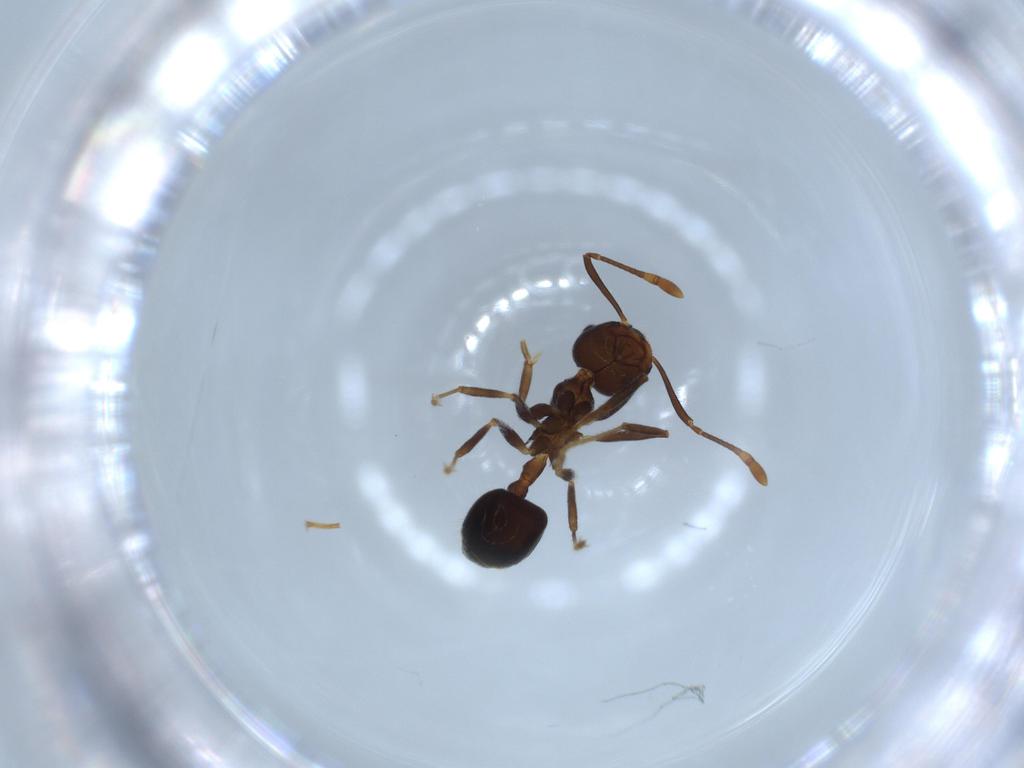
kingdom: Animalia
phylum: Arthropoda
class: Insecta
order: Hymenoptera
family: Formicidae
